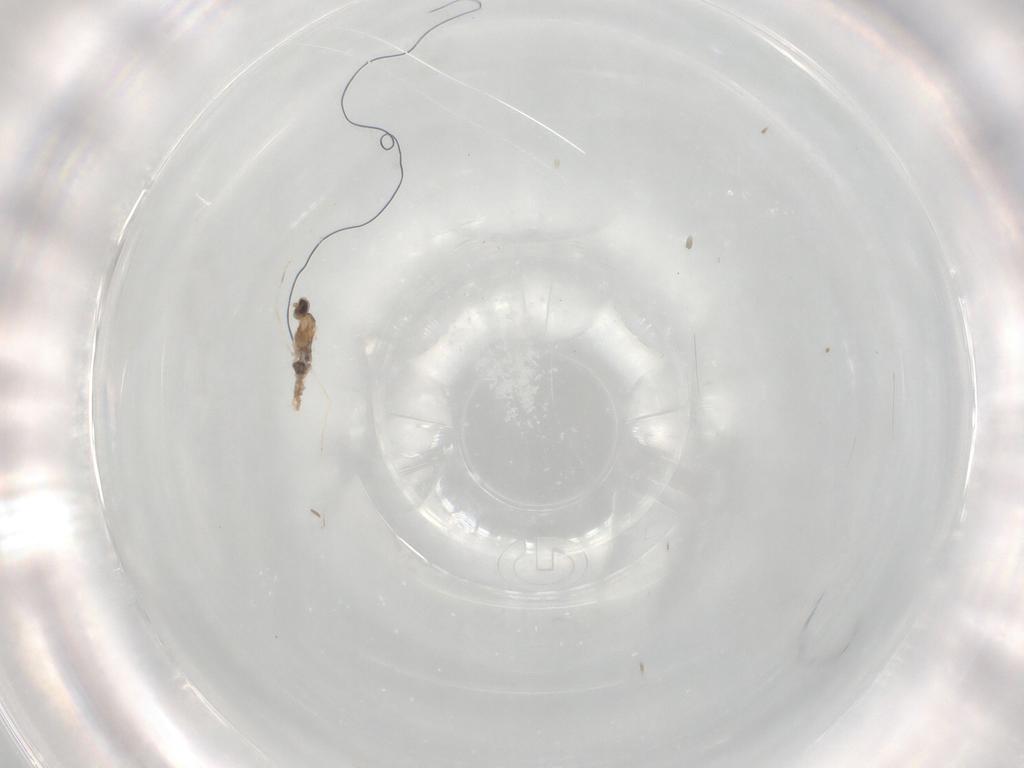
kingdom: Animalia
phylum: Arthropoda
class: Insecta
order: Diptera
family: Cecidomyiidae
